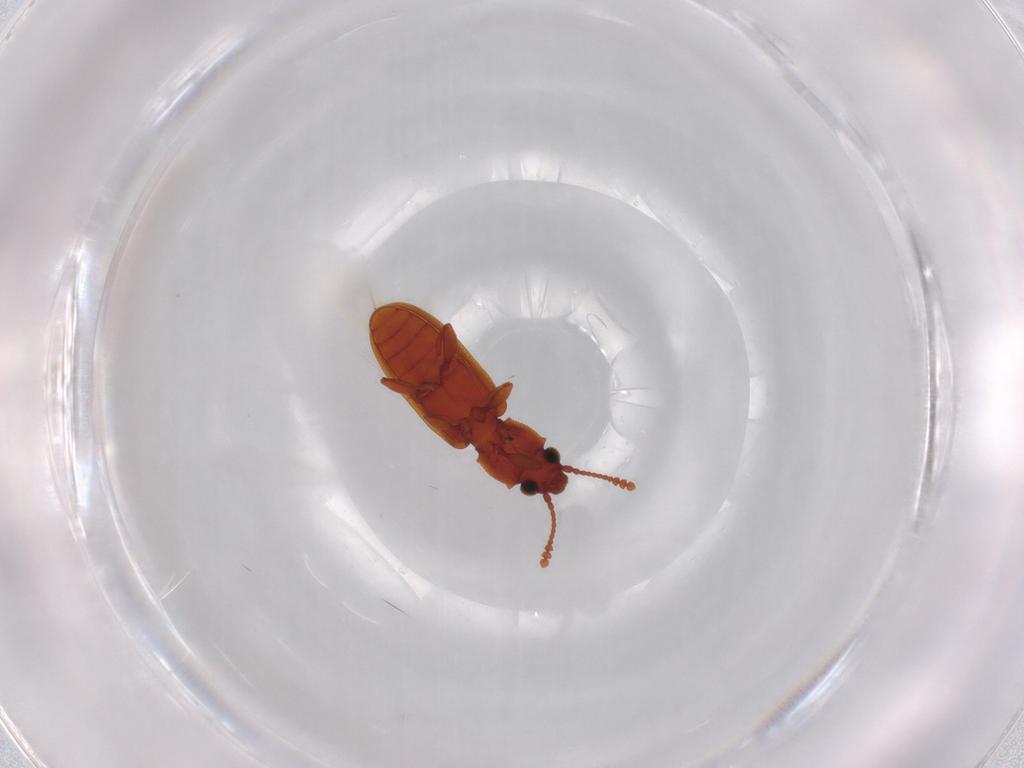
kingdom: Animalia
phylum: Arthropoda
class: Insecta
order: Coleoptera
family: Silvanidae
